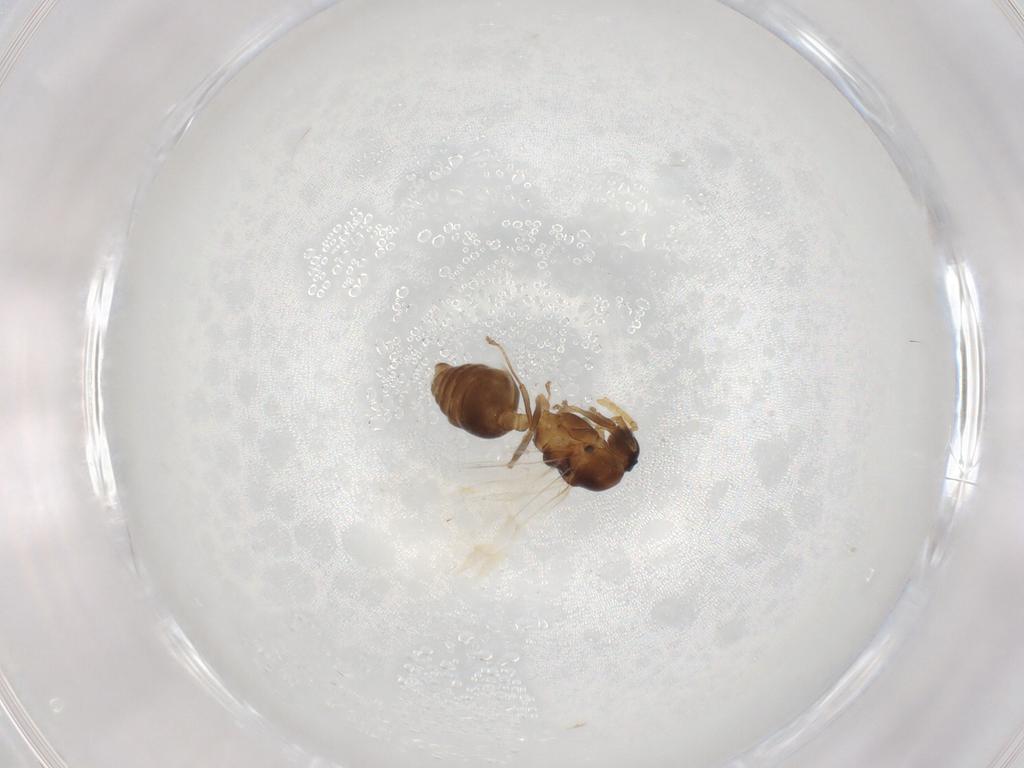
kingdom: Animalia
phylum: Arthropoda
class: Insecta
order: Hymenoptera
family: Formicidae
